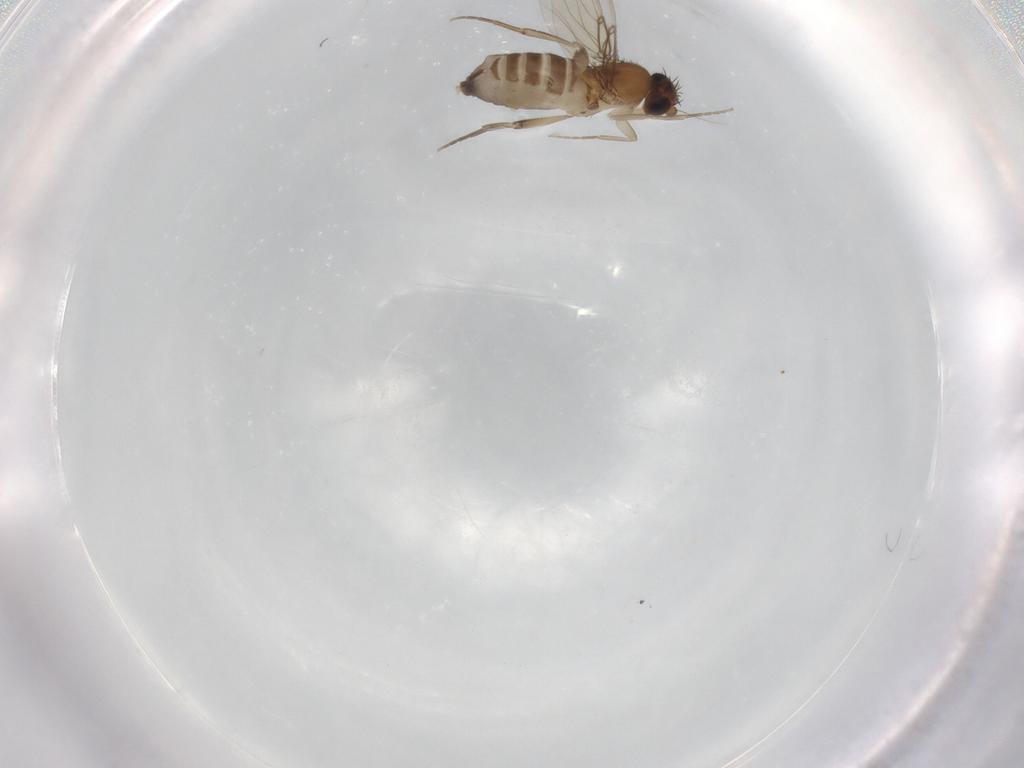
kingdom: Animalia
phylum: Arthropoda
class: Insecta
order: Diptera
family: Phoridae
